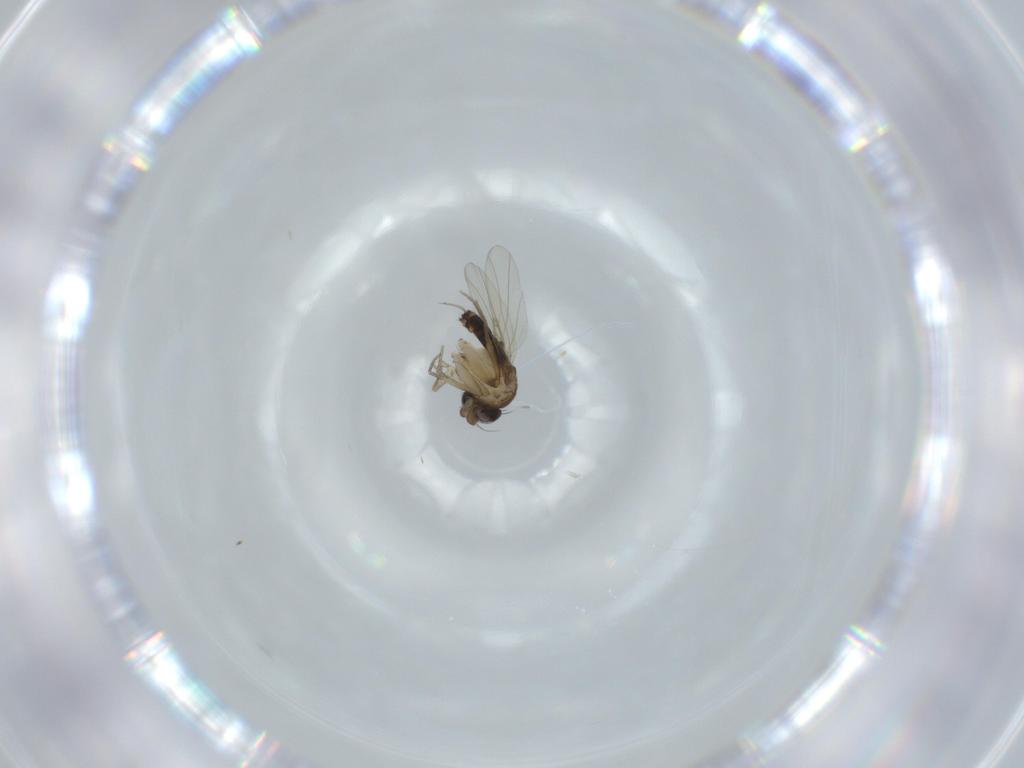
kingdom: Animalia
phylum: Arthropoda
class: Insecta
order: Diptera
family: Phoridae
